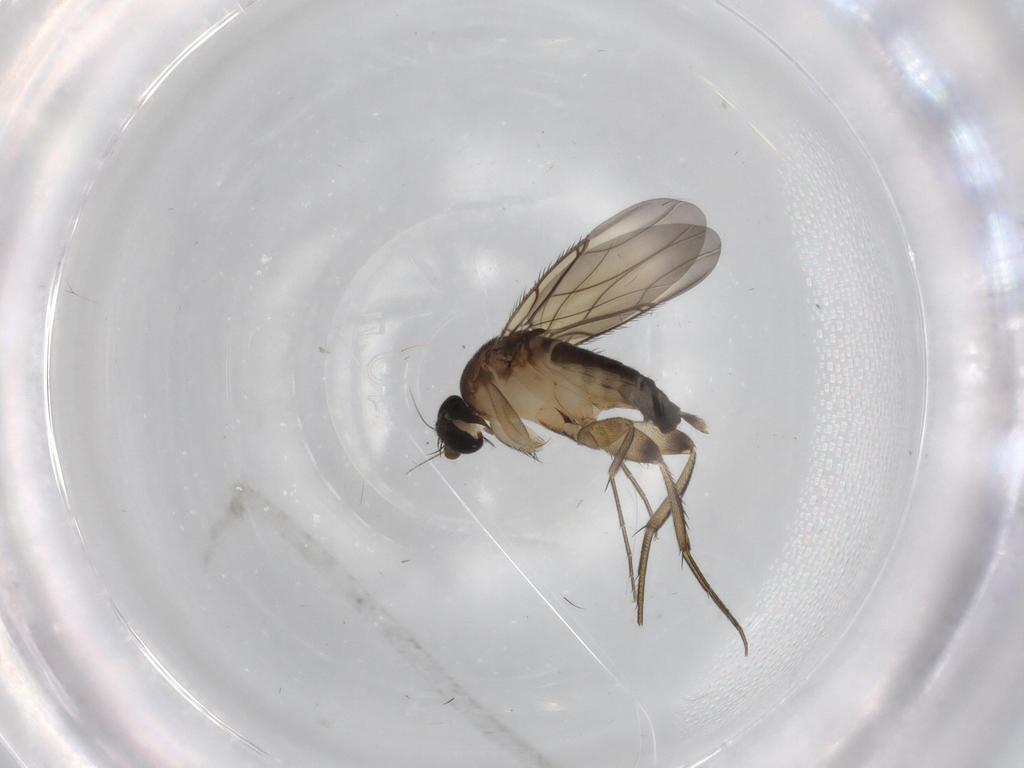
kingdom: Animalia
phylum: Arthropoda
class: Insecta
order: Diptera
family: Phoridae
